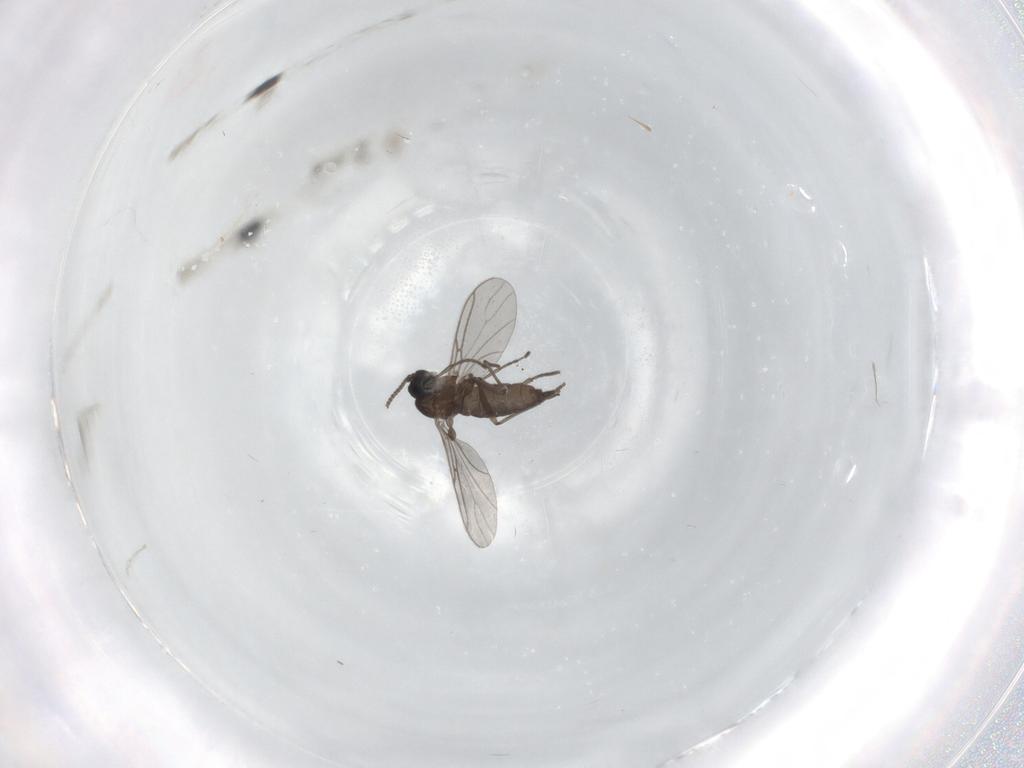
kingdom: Animalia
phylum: Arthropoda
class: Insecta
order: Diptera
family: Sciaridae
